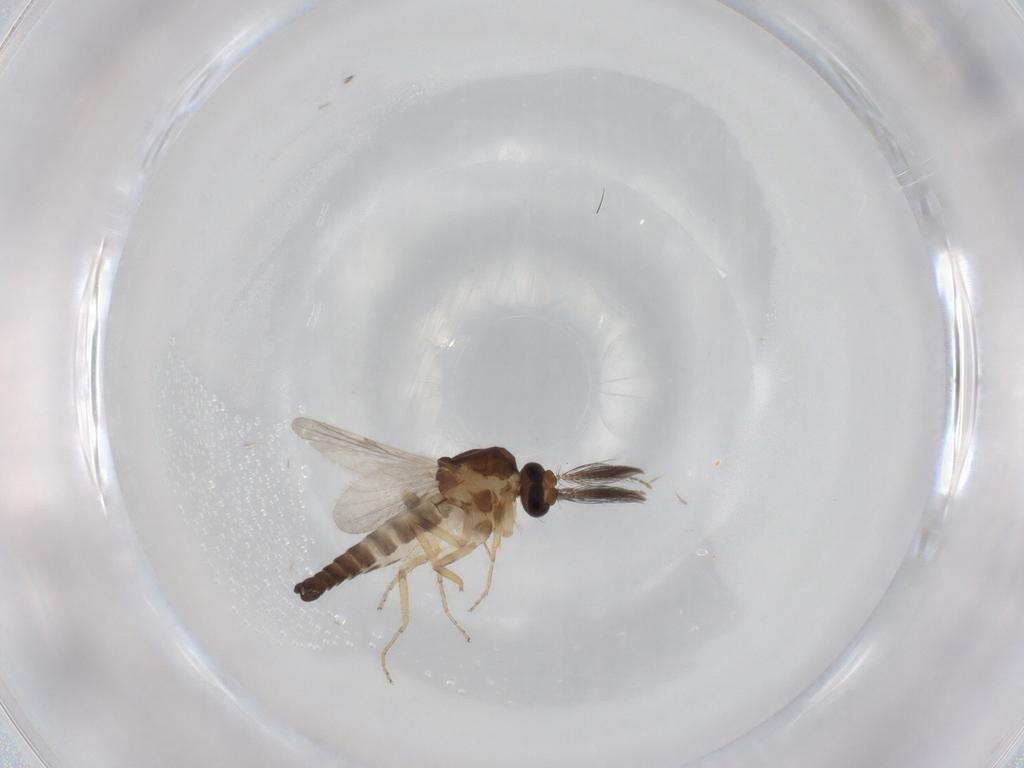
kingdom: Animalia
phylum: Arthropoda
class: Insecta
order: Diptera
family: Ceratopogonidae
